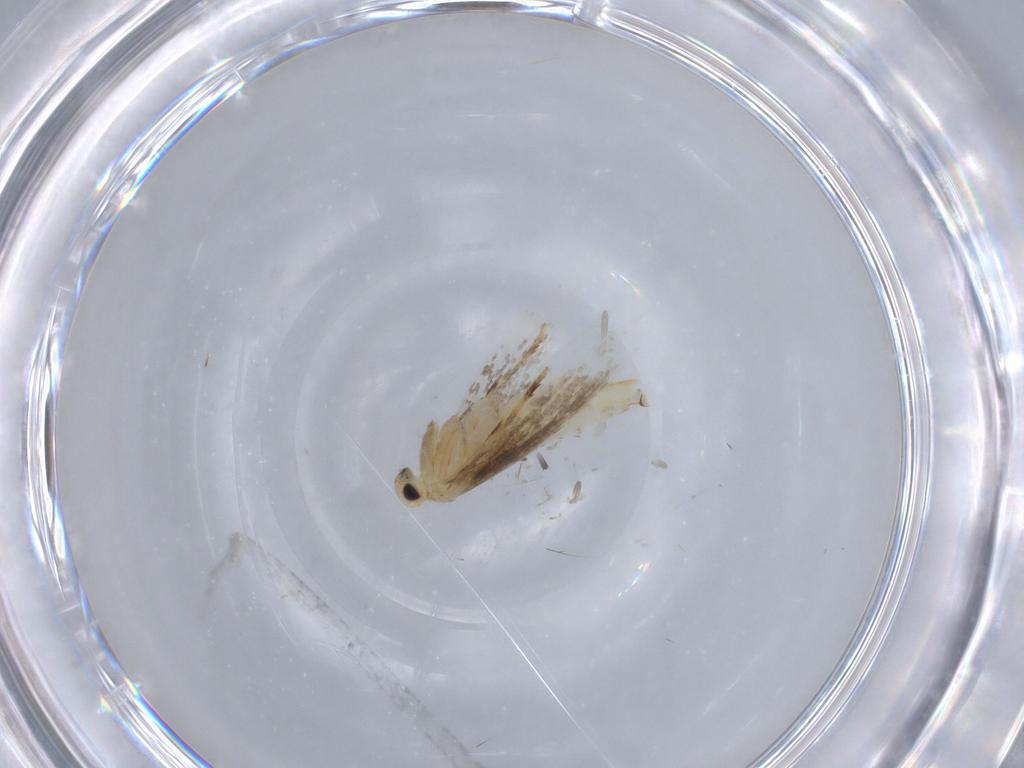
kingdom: Animalia
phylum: Arthropoda
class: Insecta
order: Lepidoptera
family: Gracillariidae
